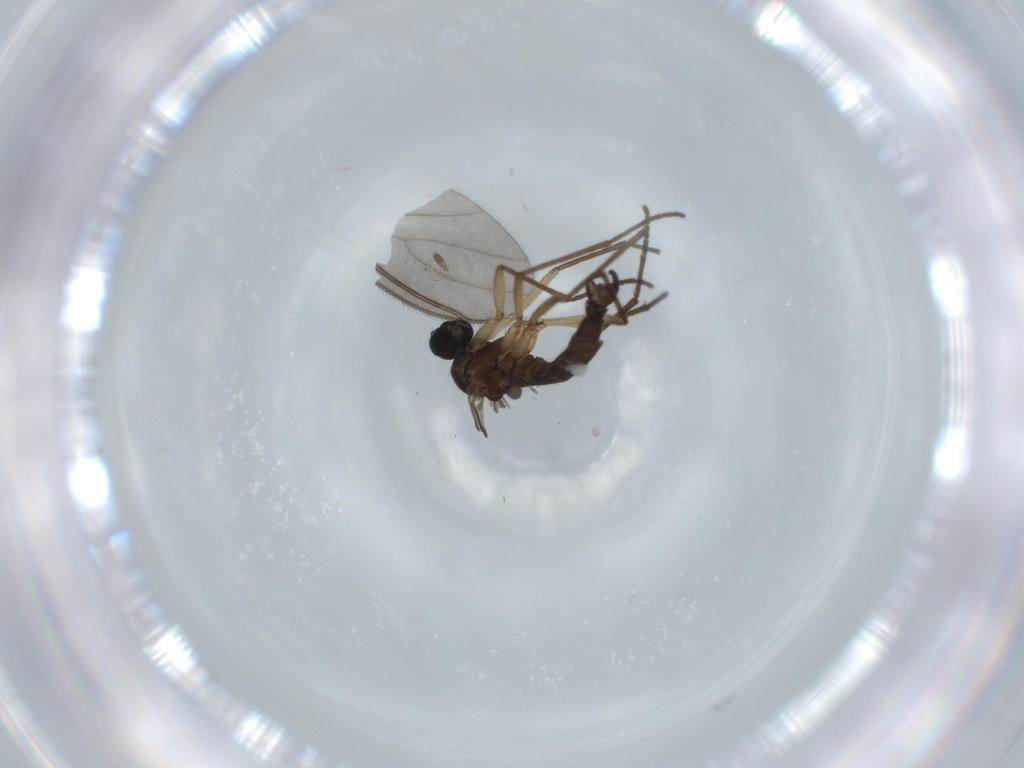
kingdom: Animalia
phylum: Arthropoda
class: Insecta
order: Diptera
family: Sciaridae
